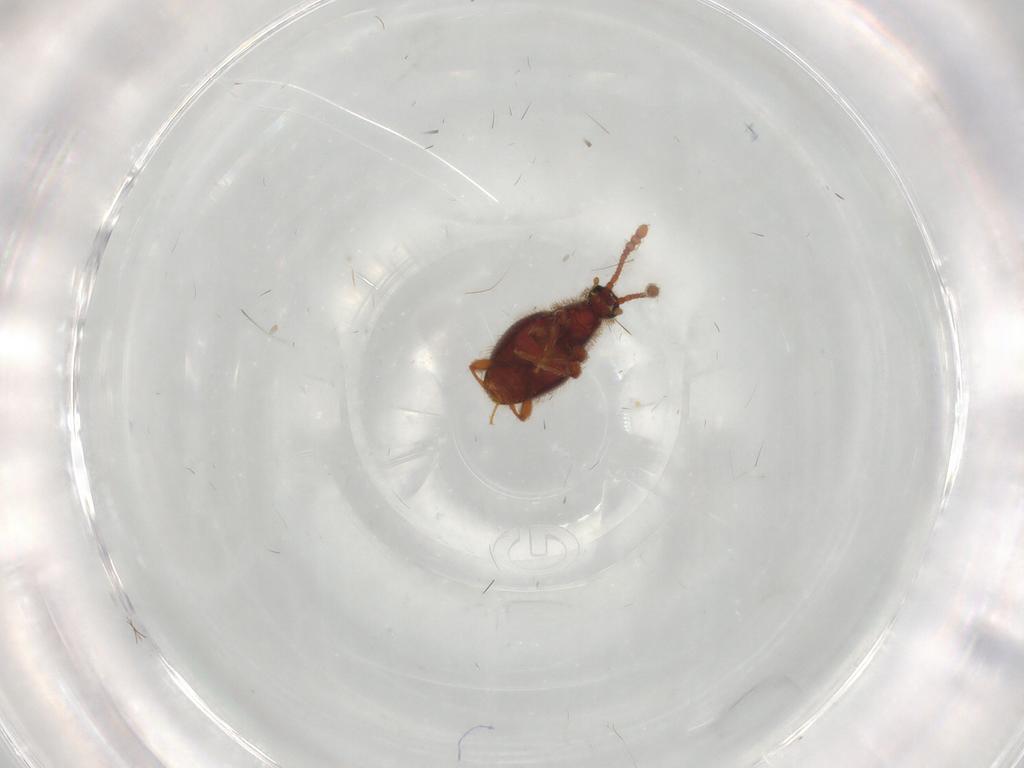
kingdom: Animalia
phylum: Arthropoda
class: Insecta
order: Coleoptera
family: Staphylinidae
